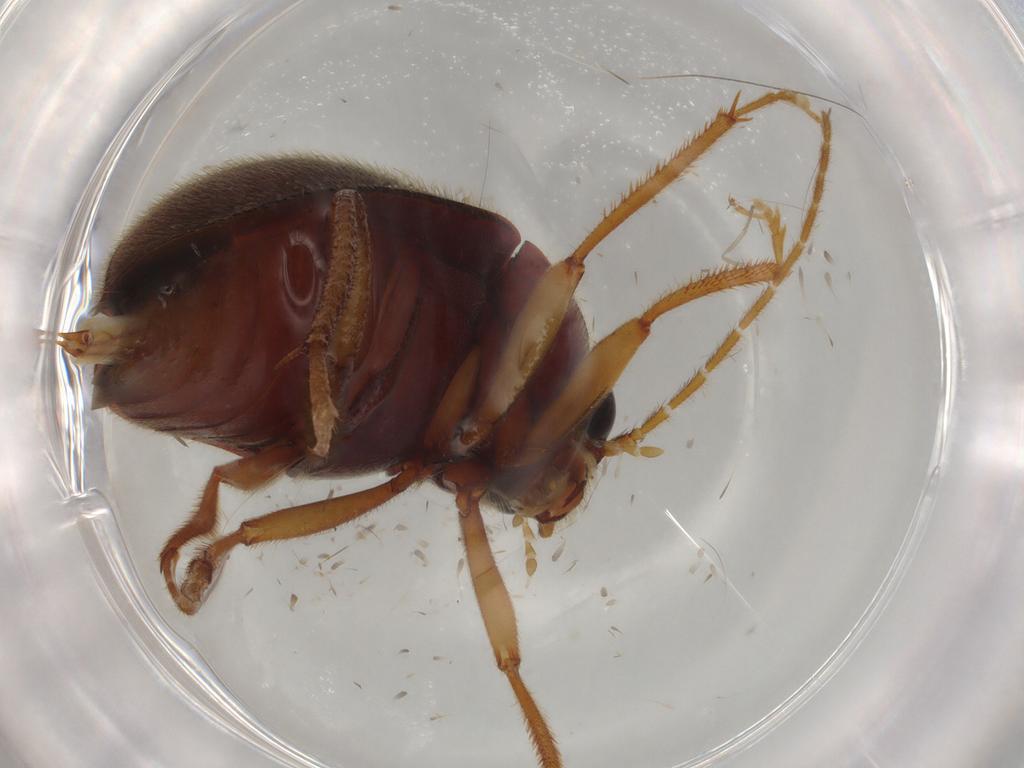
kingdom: Animalia
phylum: Arthropoda
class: Insecta
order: Coleoptera
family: Ptilodactylidae
